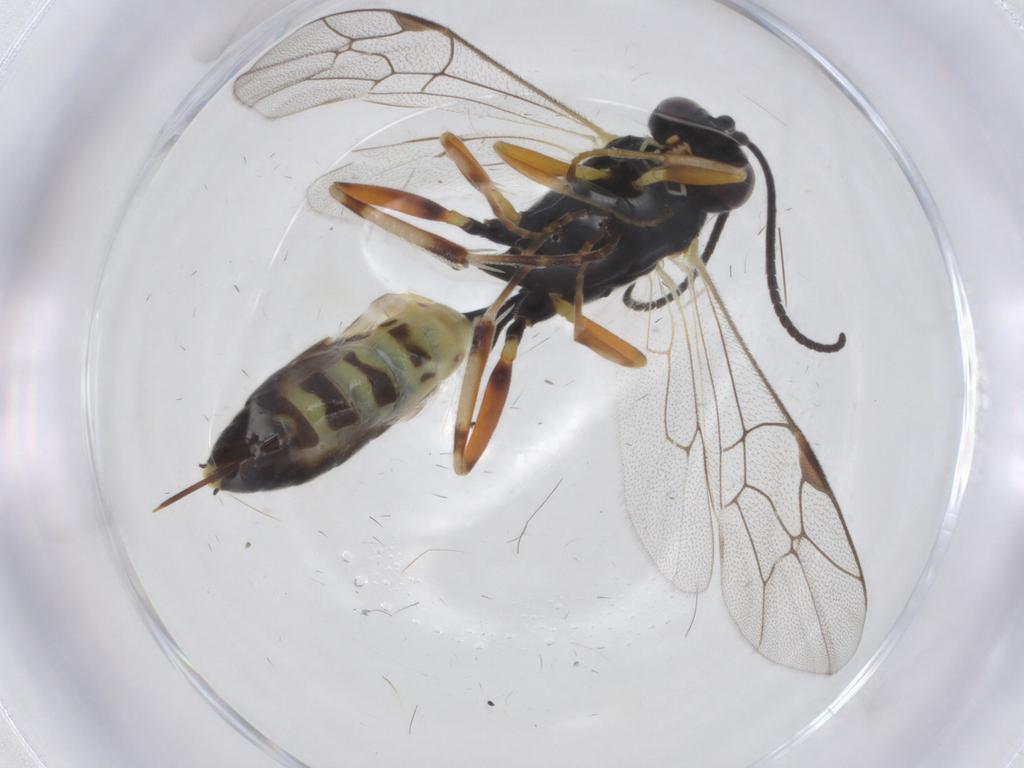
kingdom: Animalia
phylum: Arthropoda
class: Insecta
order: Hymenoptera
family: Ichneumonidae
